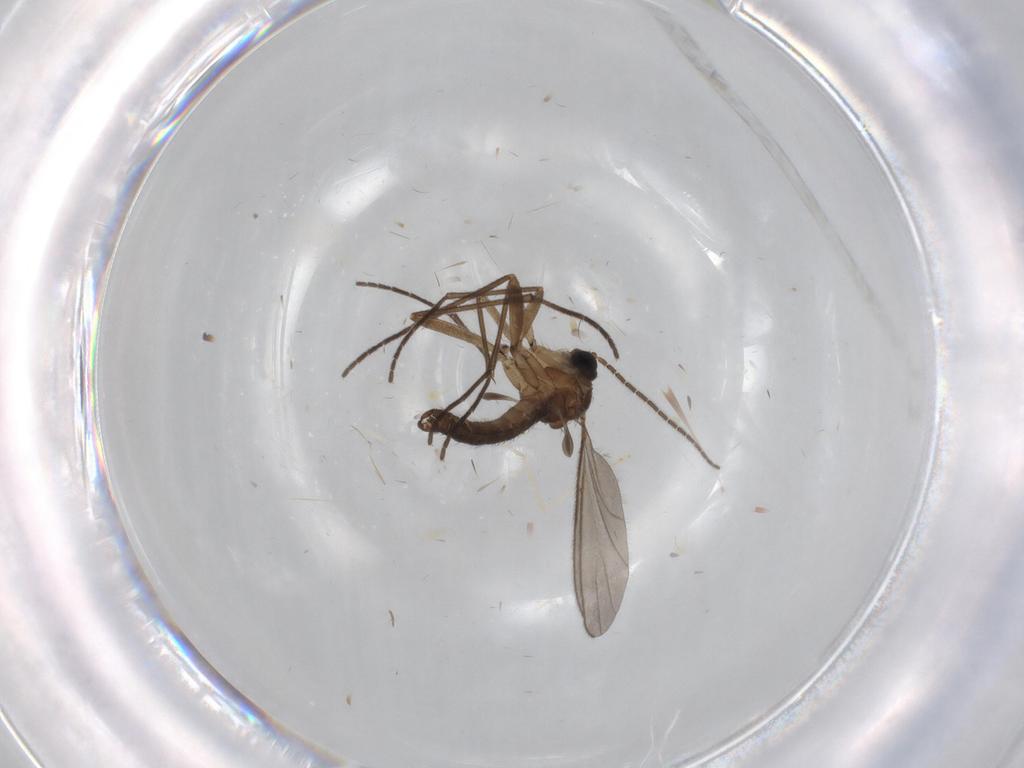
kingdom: Animalia
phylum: Arthropoda
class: Insecta
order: Diptera
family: Cecidomyiidae
